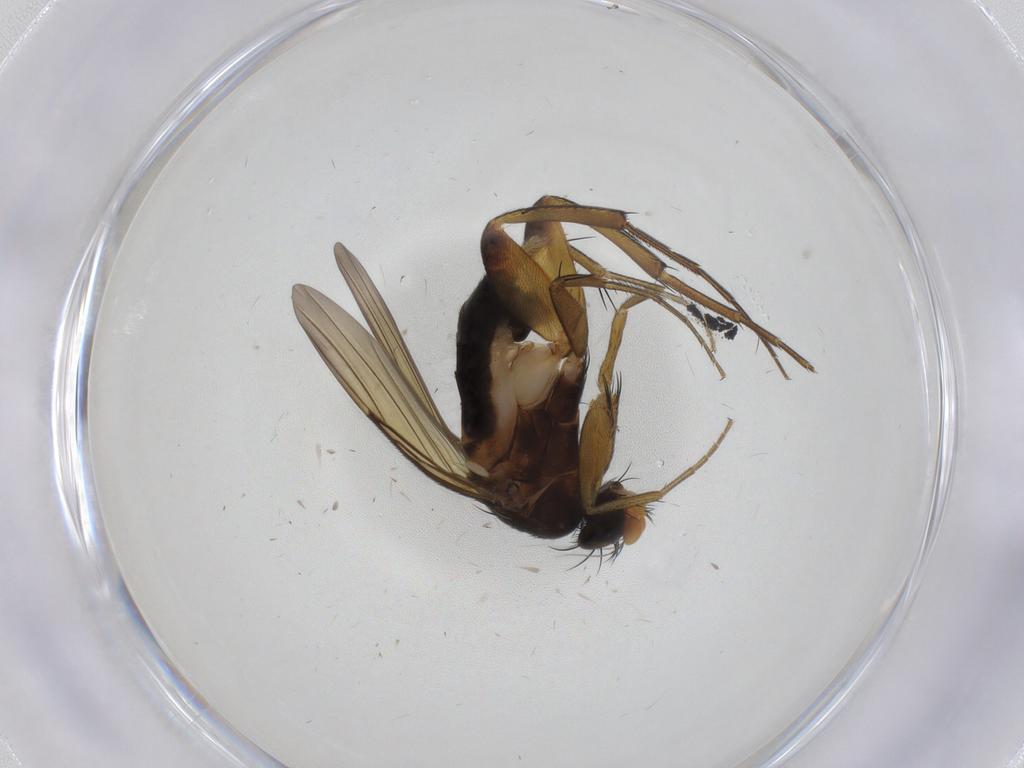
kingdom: Animalia
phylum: Arthropoda
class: Insecta
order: Diptera
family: Phoridae
